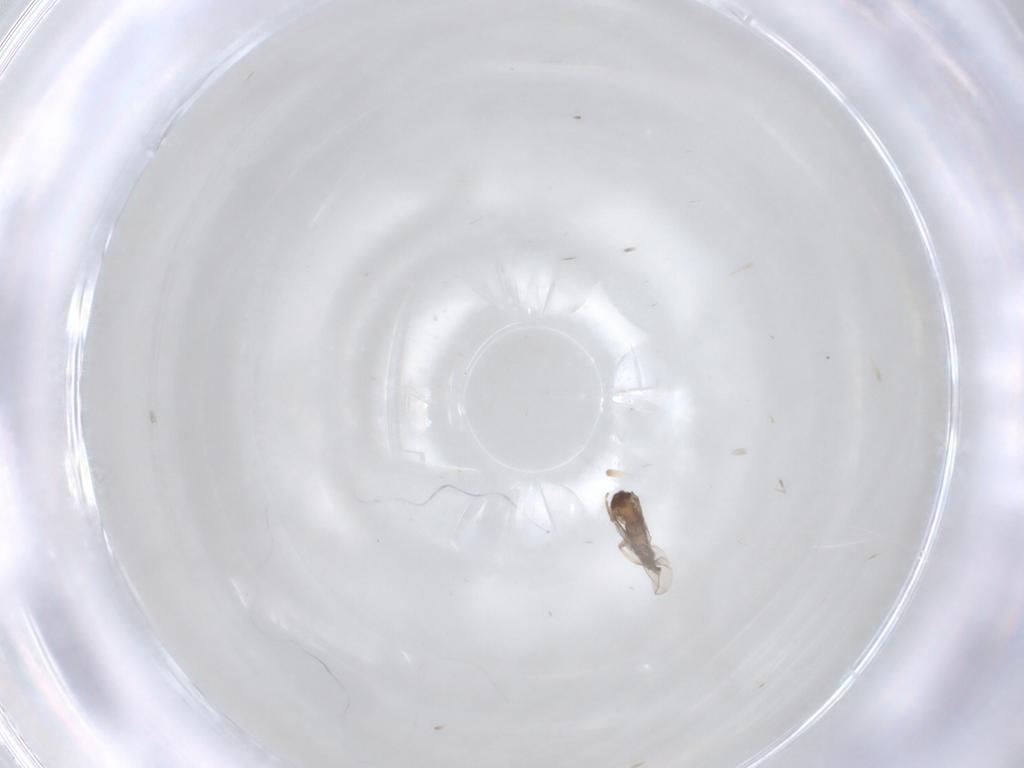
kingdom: Animalia
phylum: Arthropoda
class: Insecta
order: Diptera
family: Cecidomyiidae
